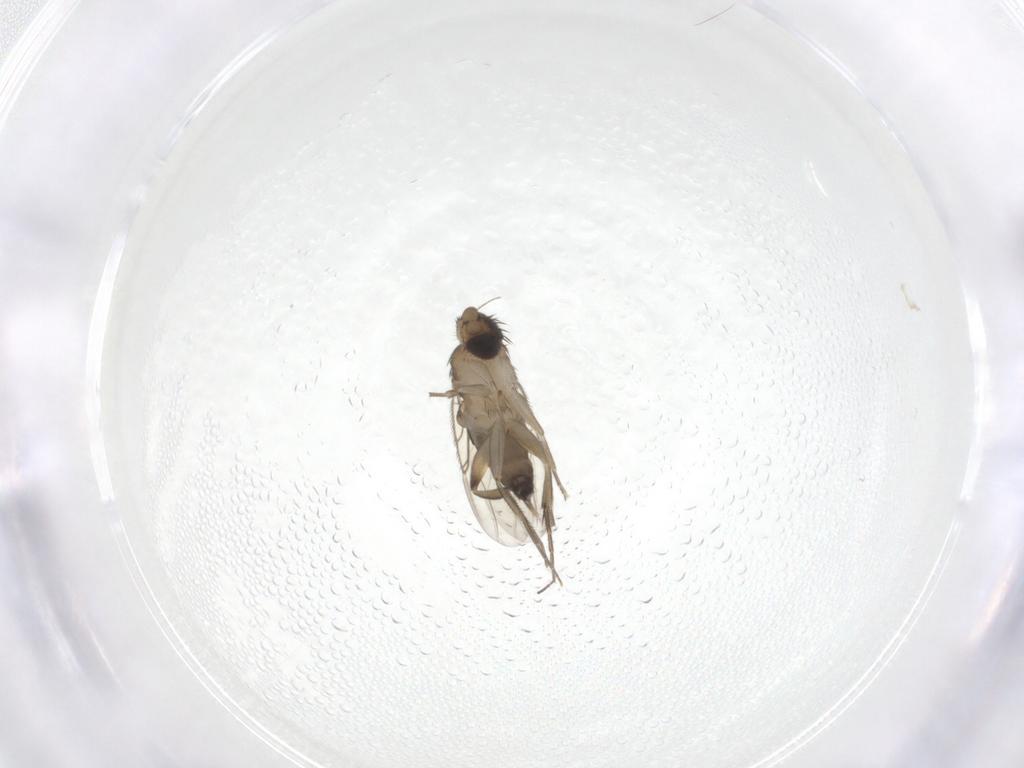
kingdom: Animalia
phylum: Arthropoda
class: Insecta
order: Diptera
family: Phoridae
